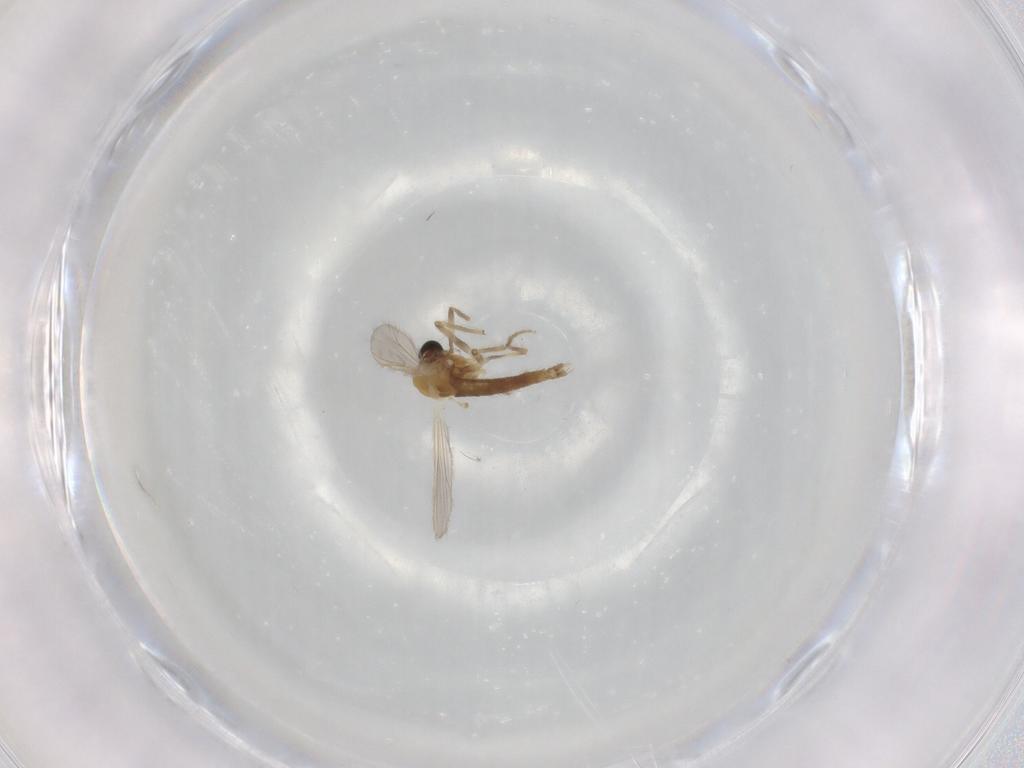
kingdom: Animalia
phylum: Arthropoda
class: Insecta
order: Diptera
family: Chironomidae
